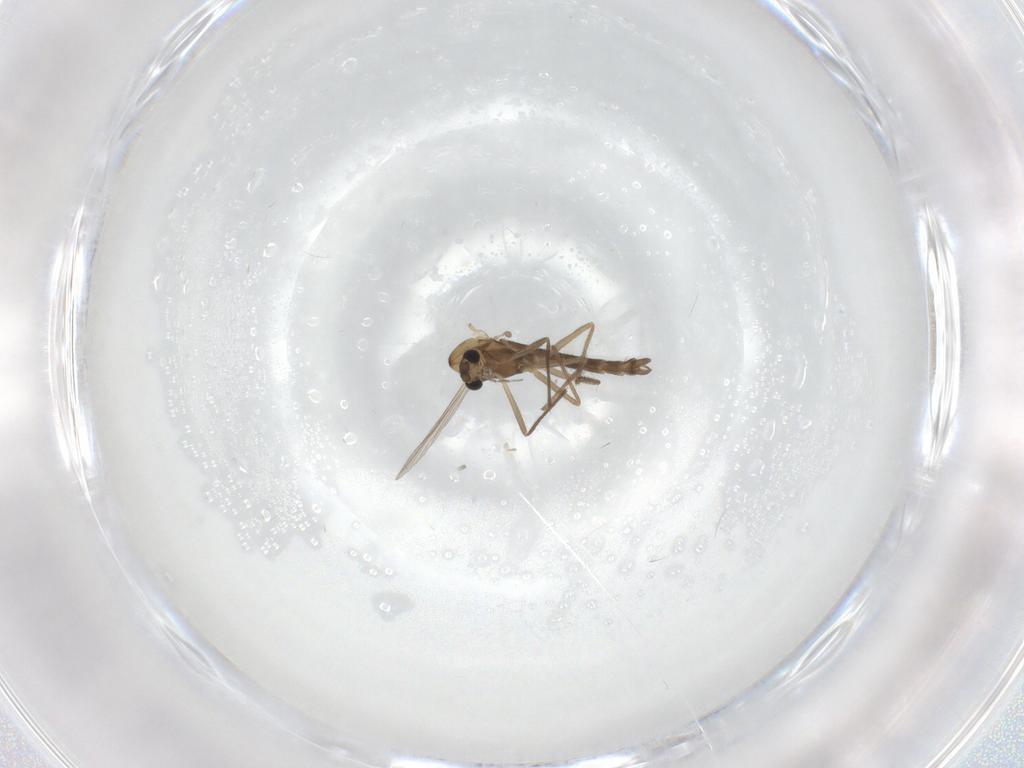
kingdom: Animalia
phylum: Arthropoda
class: Insecta
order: Diptera
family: Chironomidae
